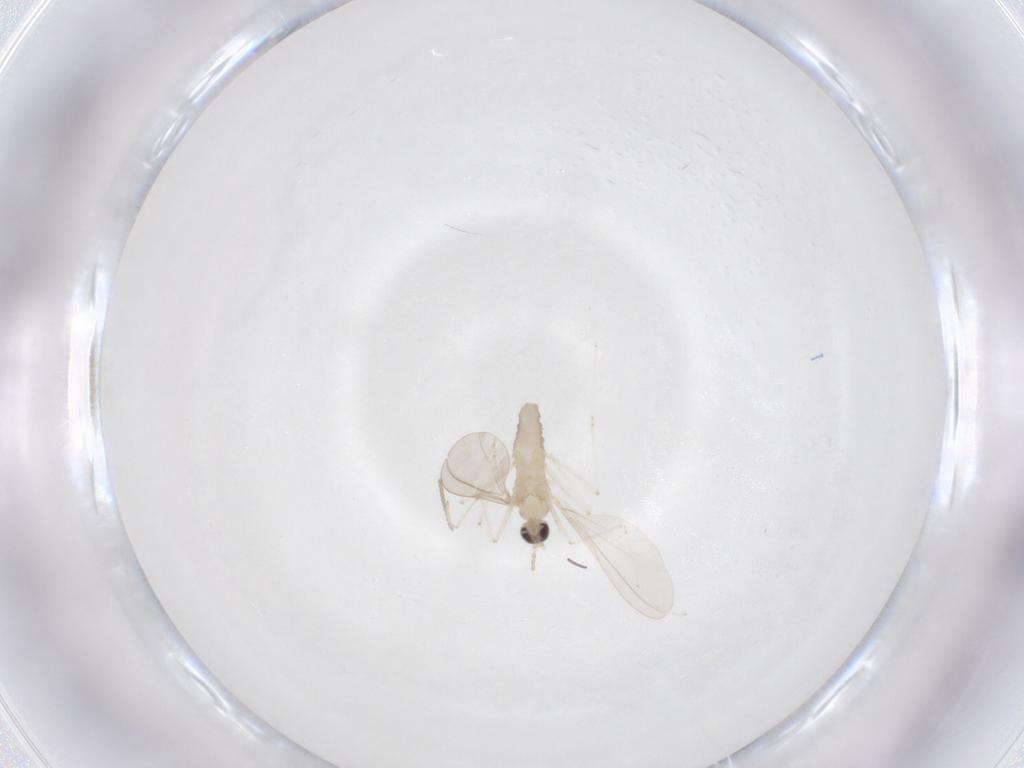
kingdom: Animalia
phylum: Arthropoda
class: Insecta
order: Diptera
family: Cecidomyiidae
